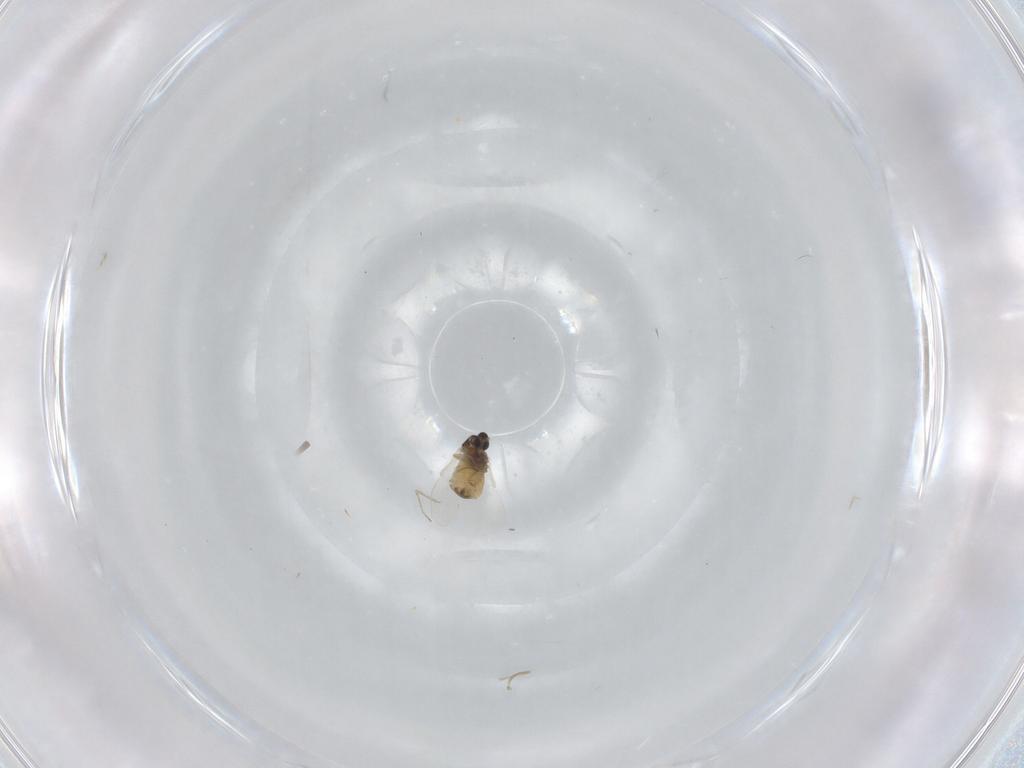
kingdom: Animalia
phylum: Arthropoda
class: Insecta
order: Diptera
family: Cecidomyiidae
